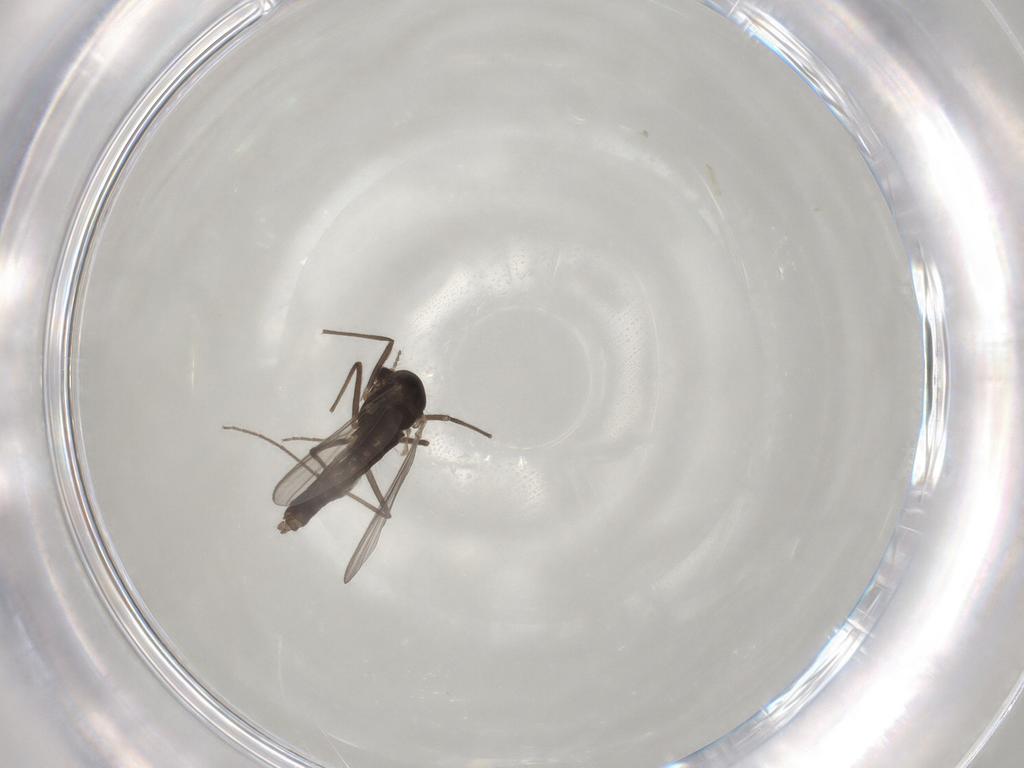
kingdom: Animalia
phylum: Arthropoda
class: Insecta
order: Diptera
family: Chironomidae
